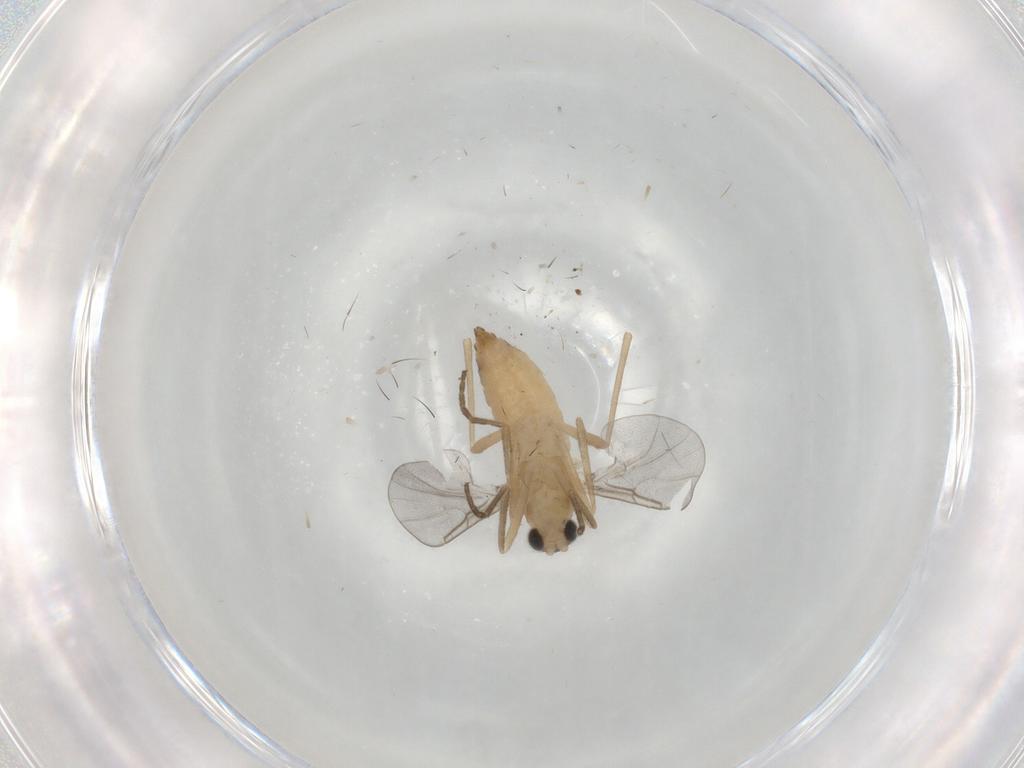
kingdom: Animalia
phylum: Arthropoda
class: Insecta
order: Diptera
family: Cecidomyiidae
